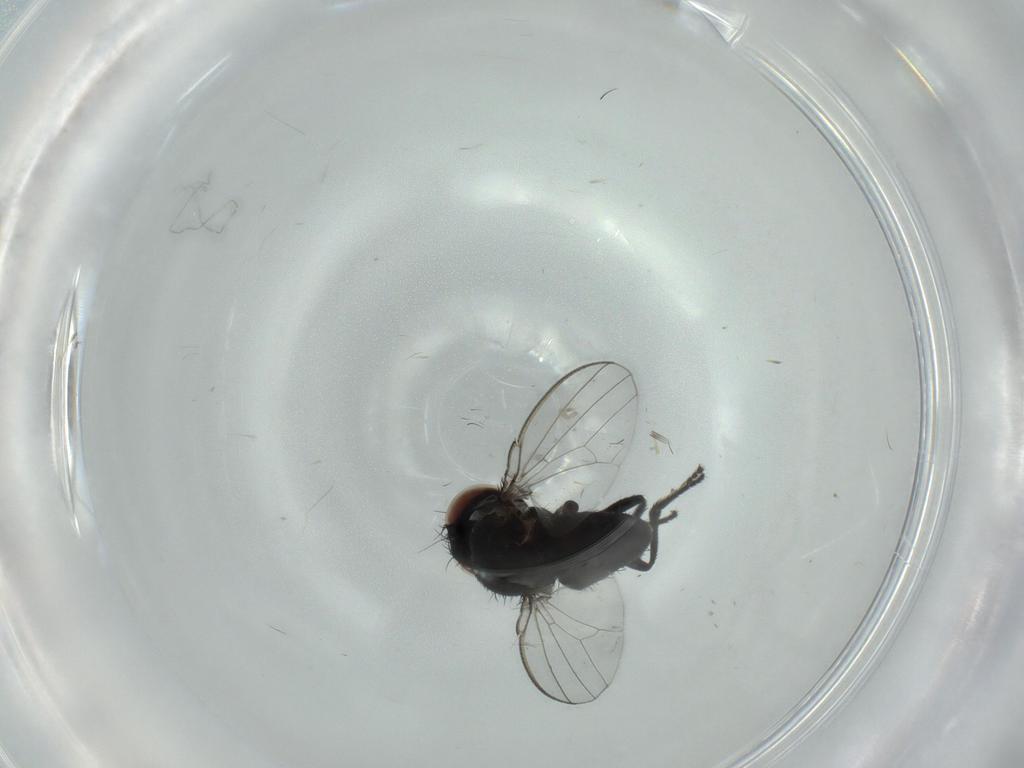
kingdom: Animalia
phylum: Arthropoda
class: Insecta
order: Diptera
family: Milichiidae
